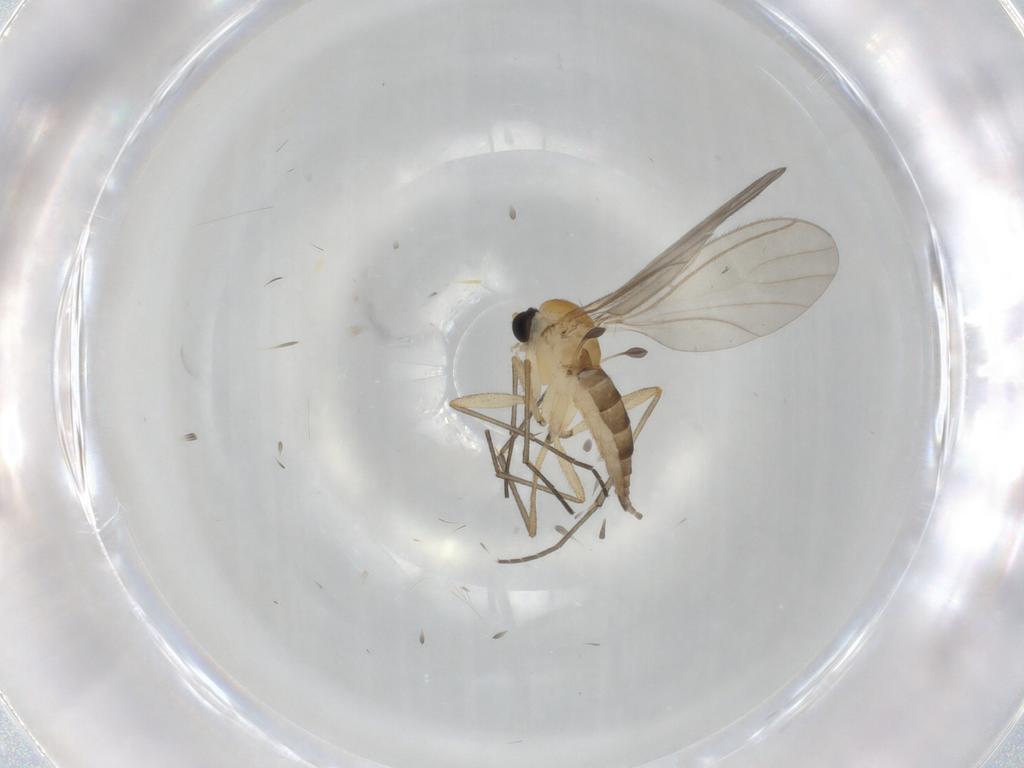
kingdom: Animalia
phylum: Arthropoda
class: Insecta
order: Diptera
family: Sciaridae
